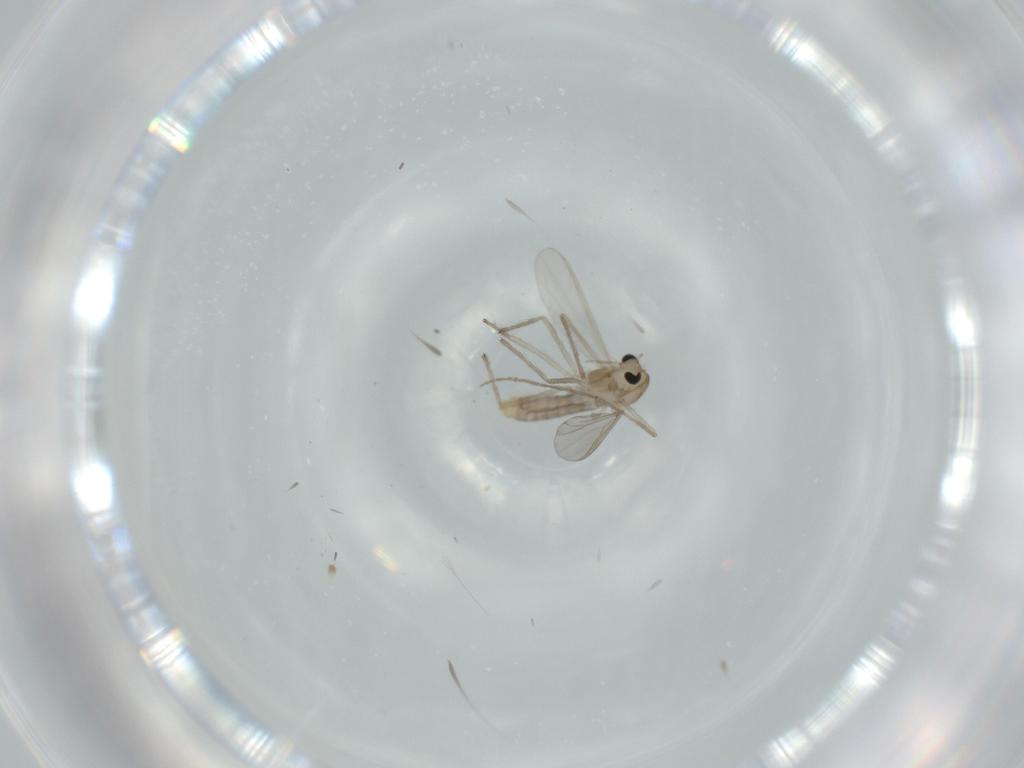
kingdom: Animalia
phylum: Arthropoda
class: Insecta
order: Diptera
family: Chironomidae
